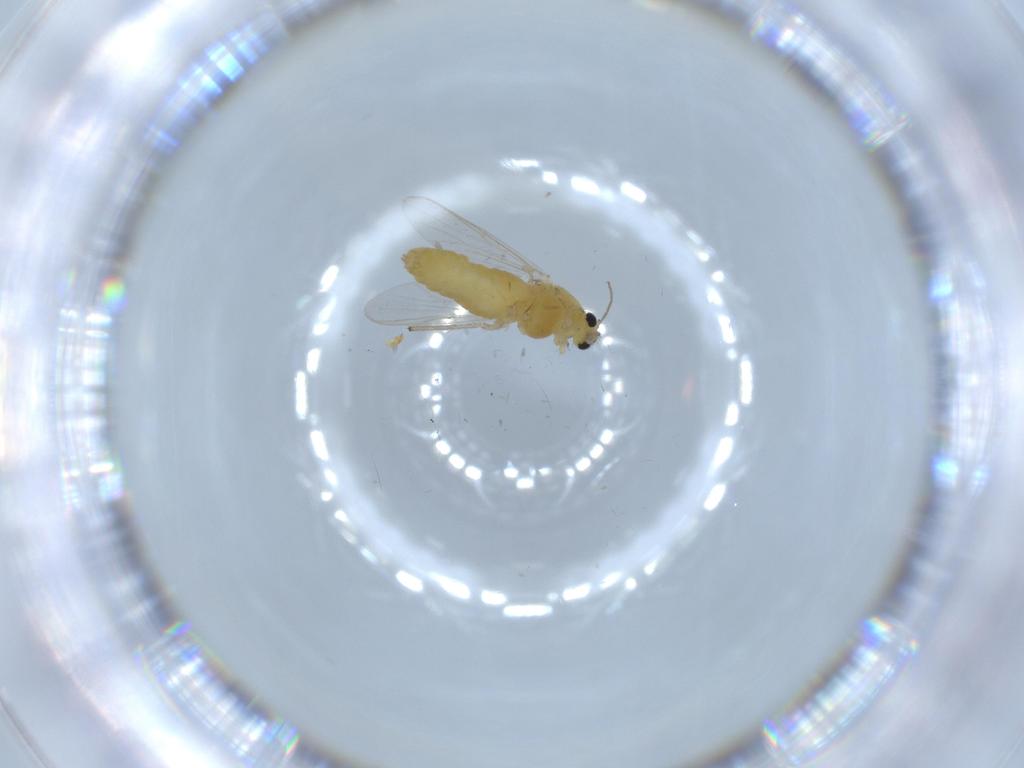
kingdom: Animalia
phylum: Arthropoda
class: Insecta
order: Diptera
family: Chironomidae
